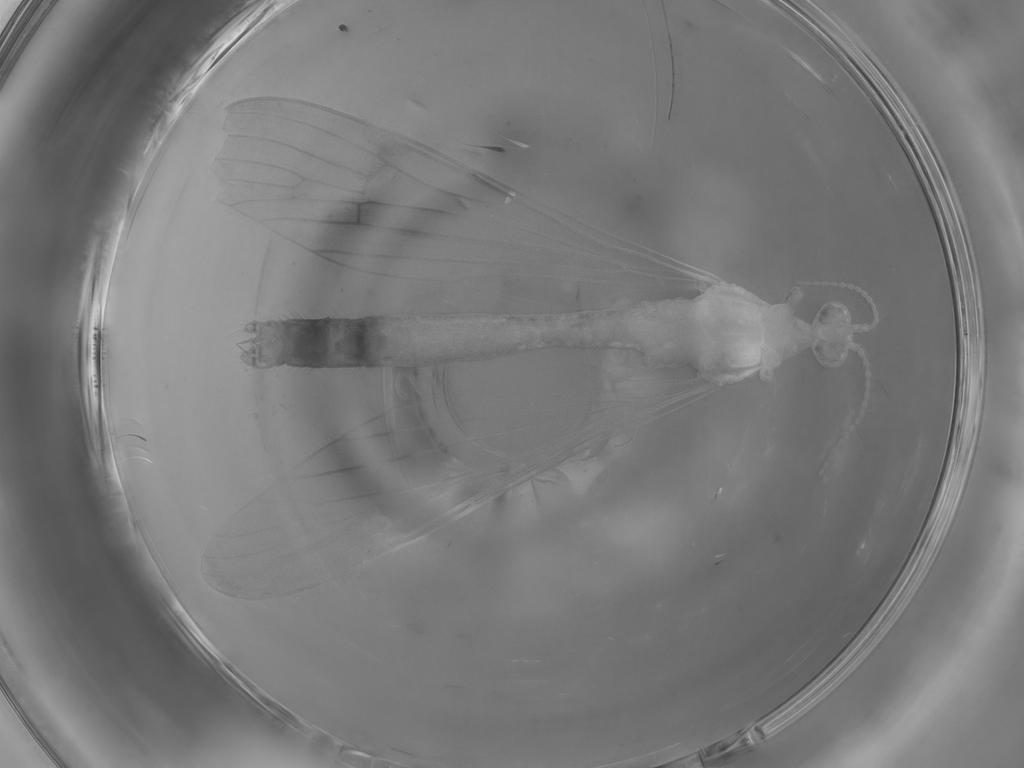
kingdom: Animalia
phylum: Arthropoda
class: Insecta
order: Diptera
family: Limoniidae
